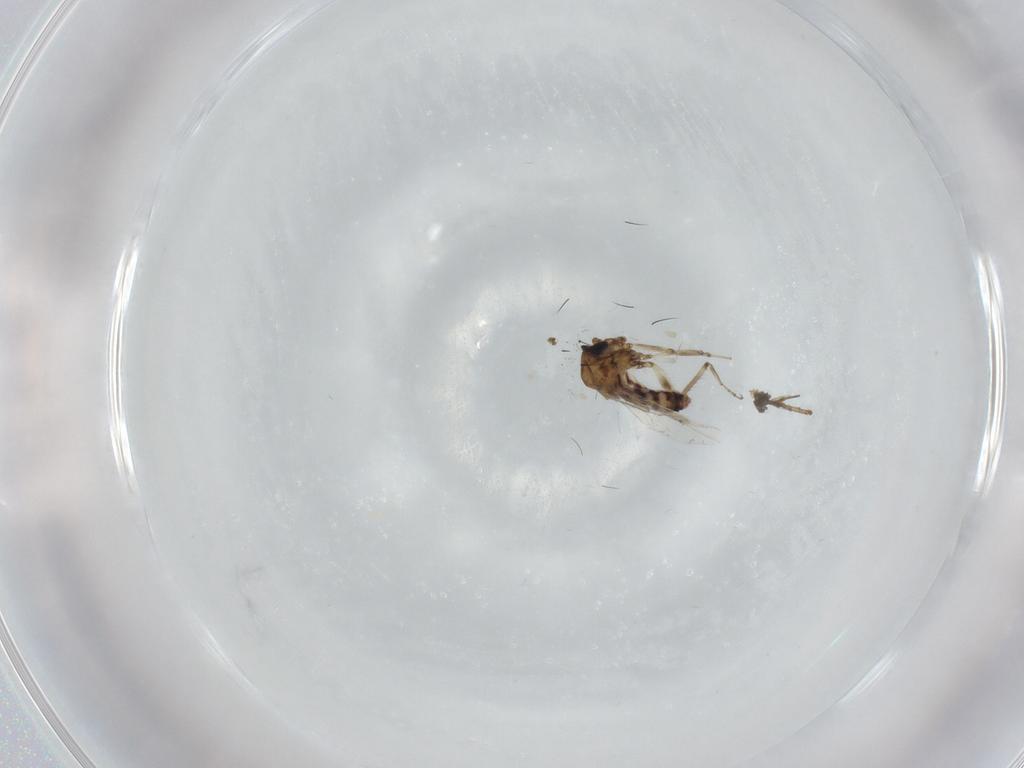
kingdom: Animalia
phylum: Arthropoda
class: Insecta
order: Diptera
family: Ceratopogonidae
